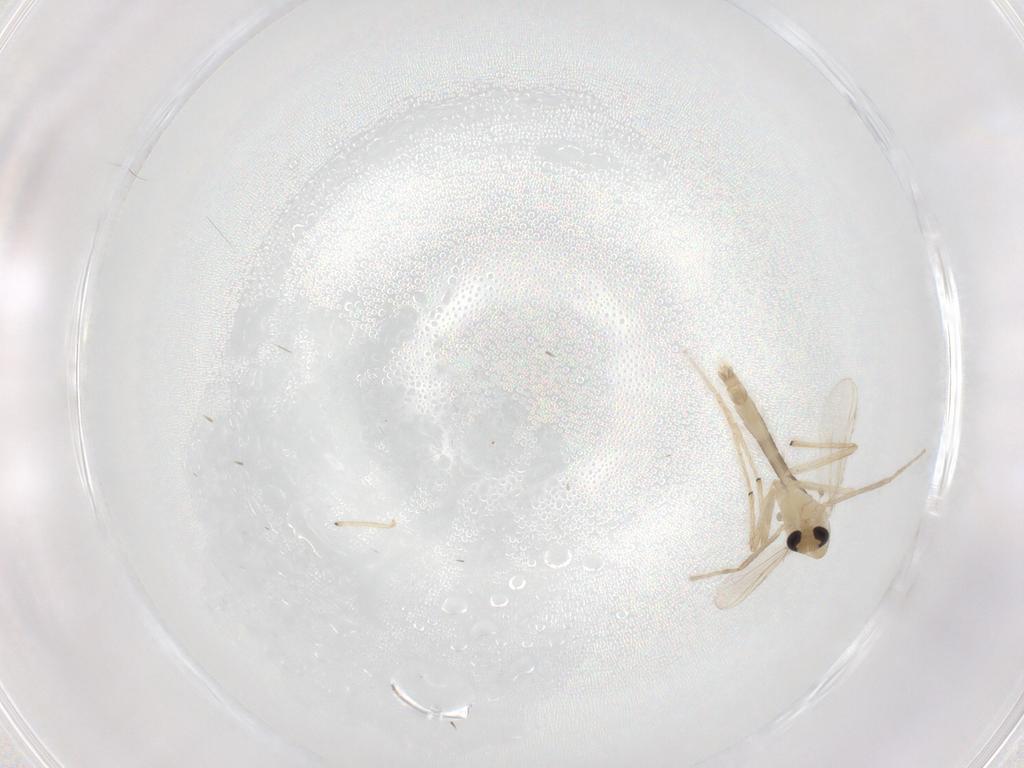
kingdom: Animalia
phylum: Arthropoda
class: Insecta
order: Diptera
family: Chironomidae
